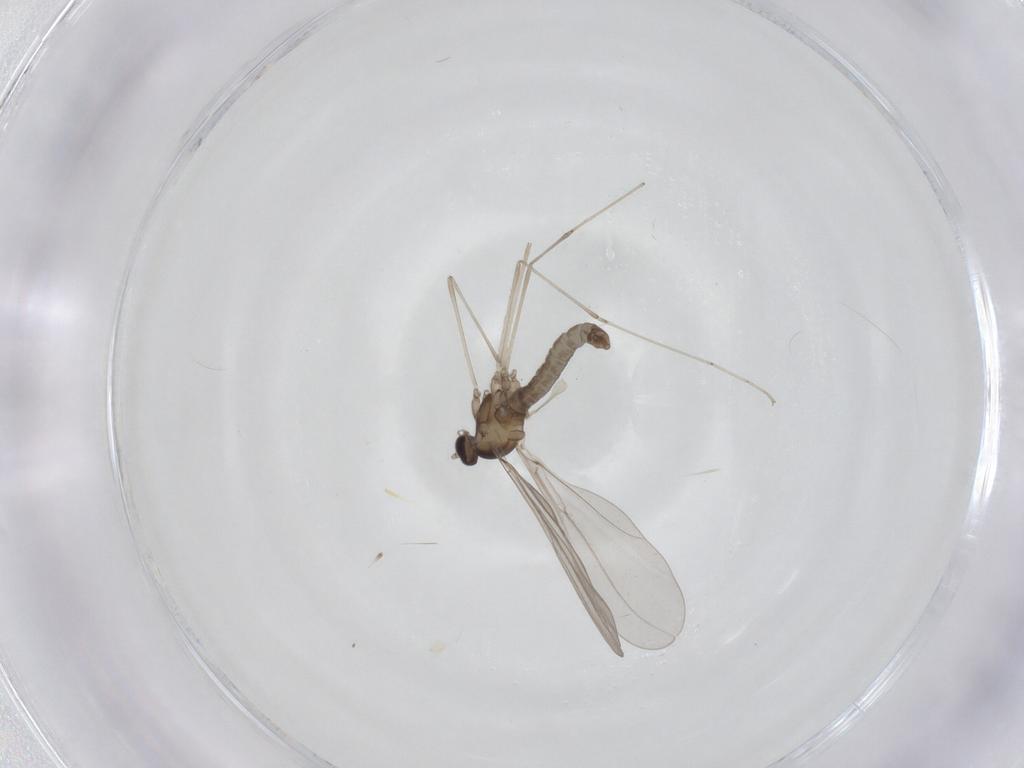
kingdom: Animalia
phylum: Arthropoda
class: Insecta
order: Diptera
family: Cecidomyiidae
